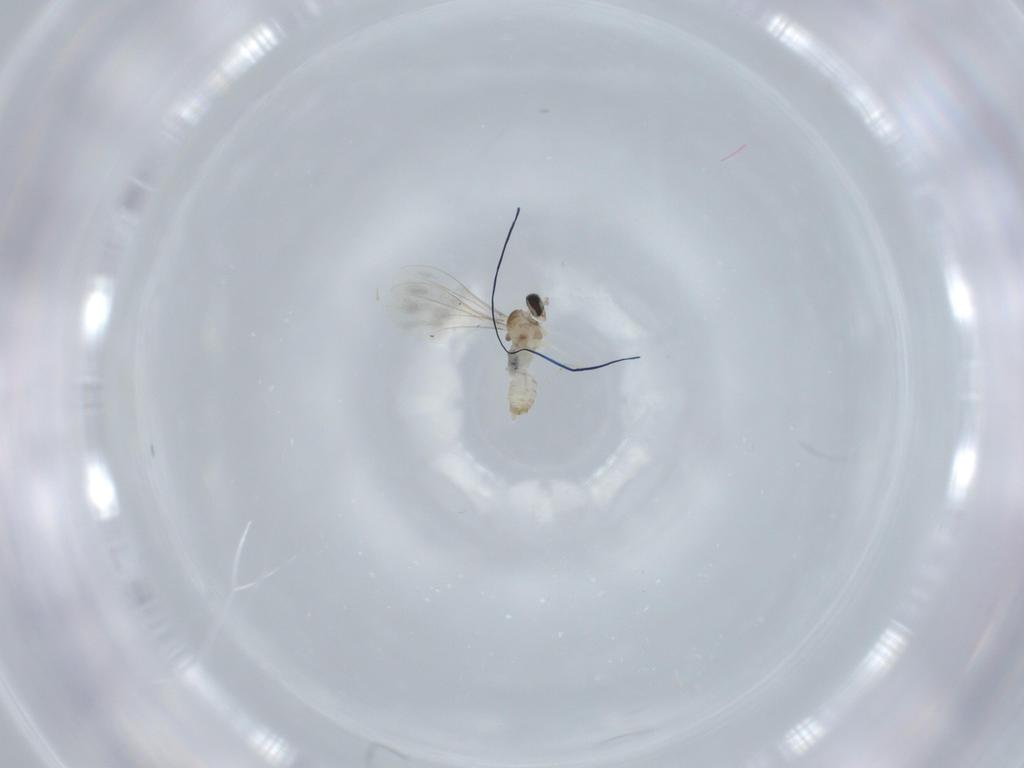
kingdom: Animalia
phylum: Arthropoda
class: Insecta
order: Diptera
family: Cecidomyiidae
